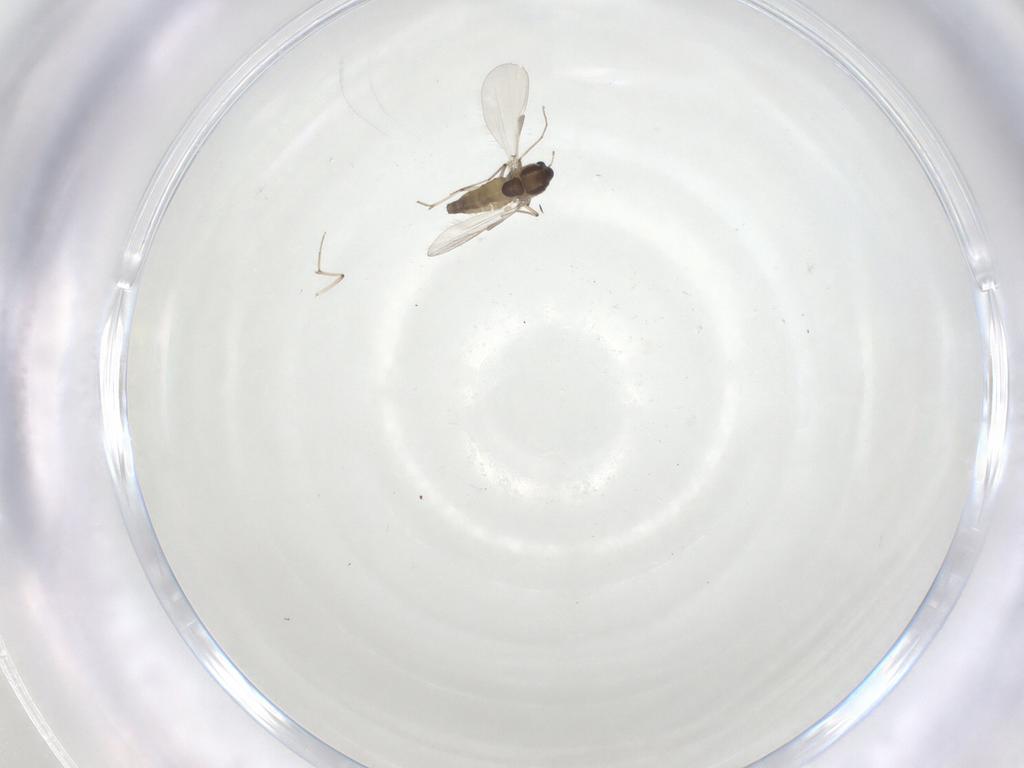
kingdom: Animalia
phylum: Arthropoda
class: Insecta
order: Diptera
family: Chironomidae
